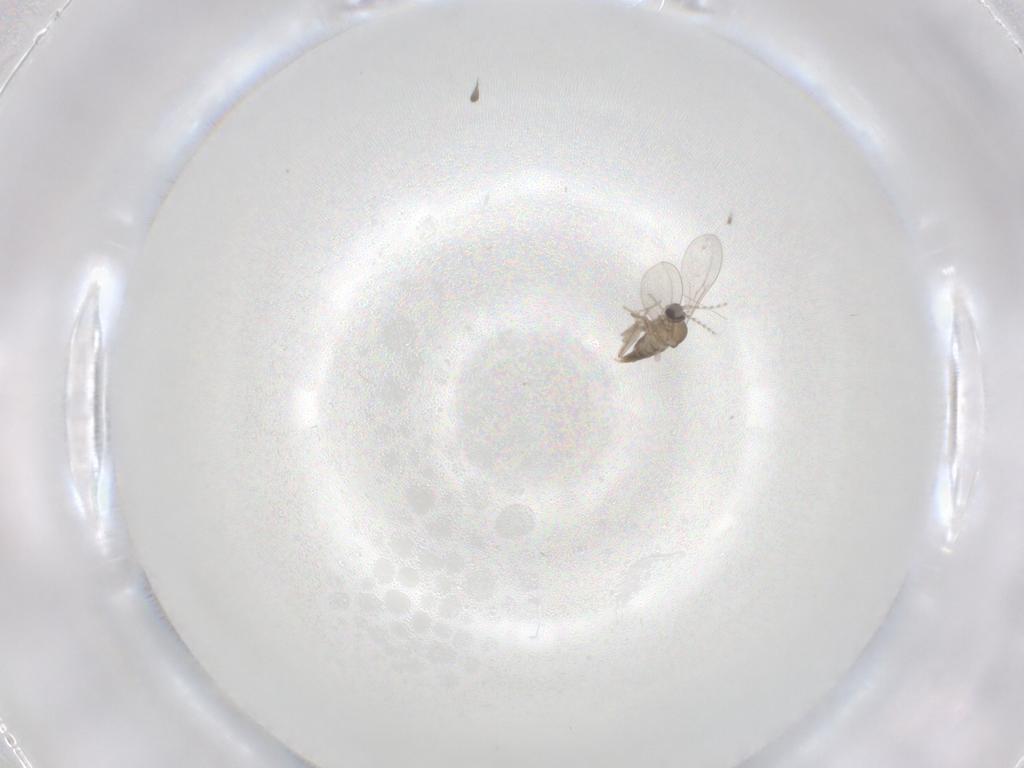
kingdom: Animalia
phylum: Arthropoda
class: Insecta
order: Diptera
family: Cecidomyiidae
